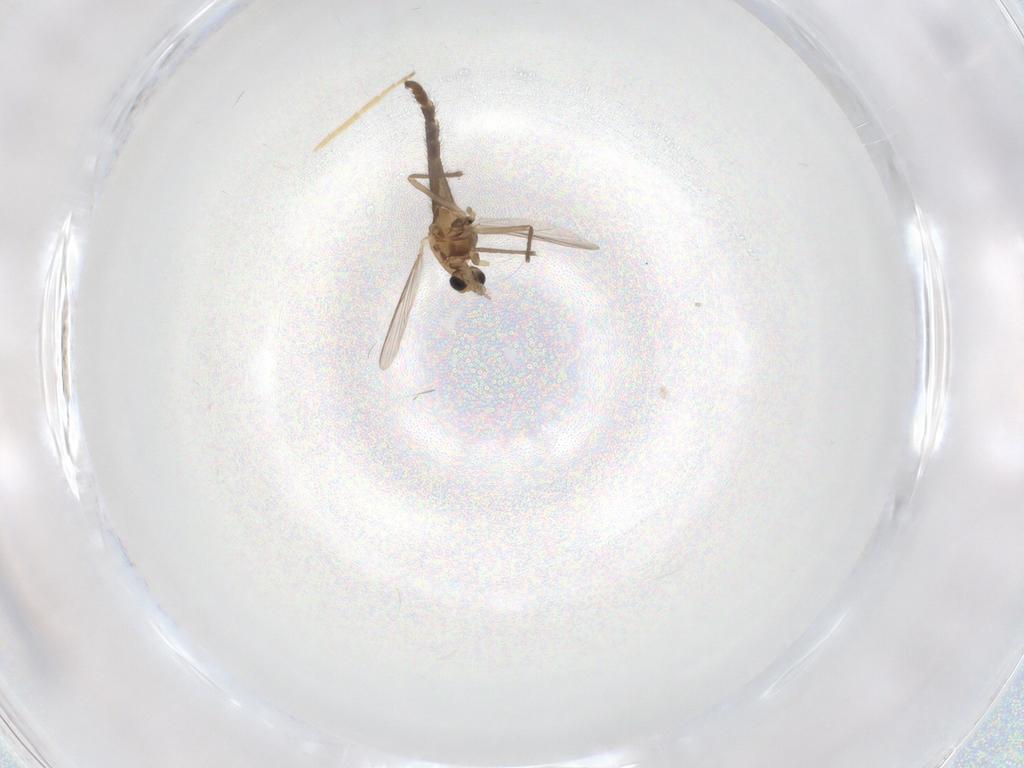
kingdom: Animalia
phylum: Arthropoda
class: Insecta
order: Diptera
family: Chironomidae
